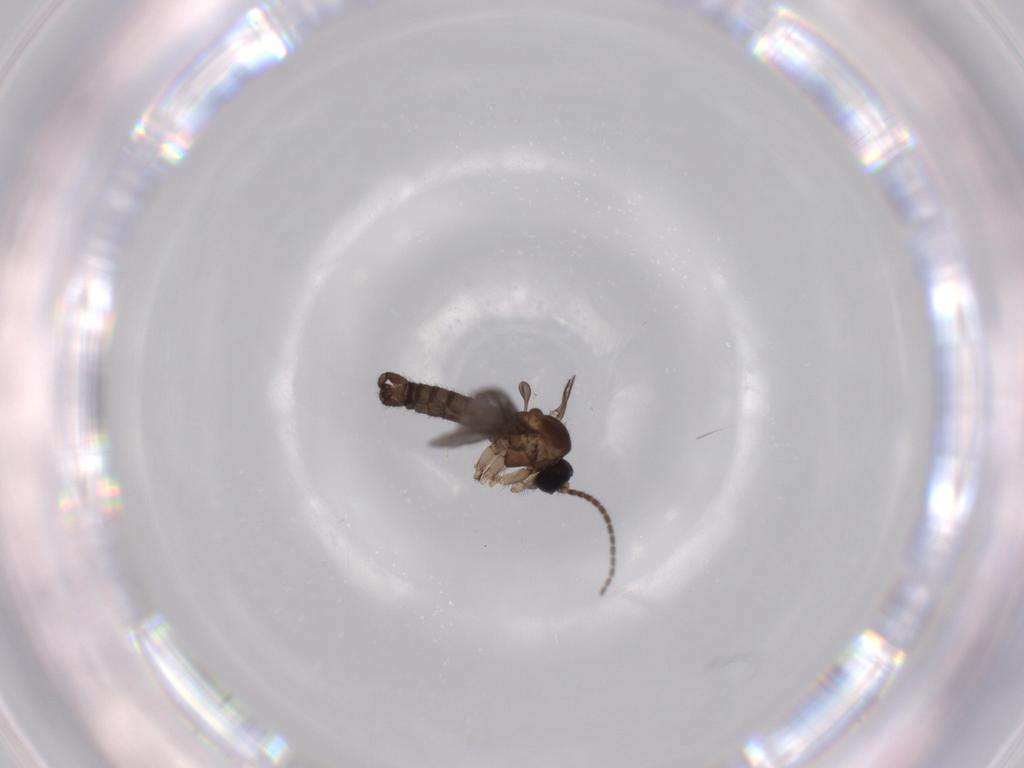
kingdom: Animalia
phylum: Arthropoda
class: Insecta
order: Diptera
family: Sciaridae
